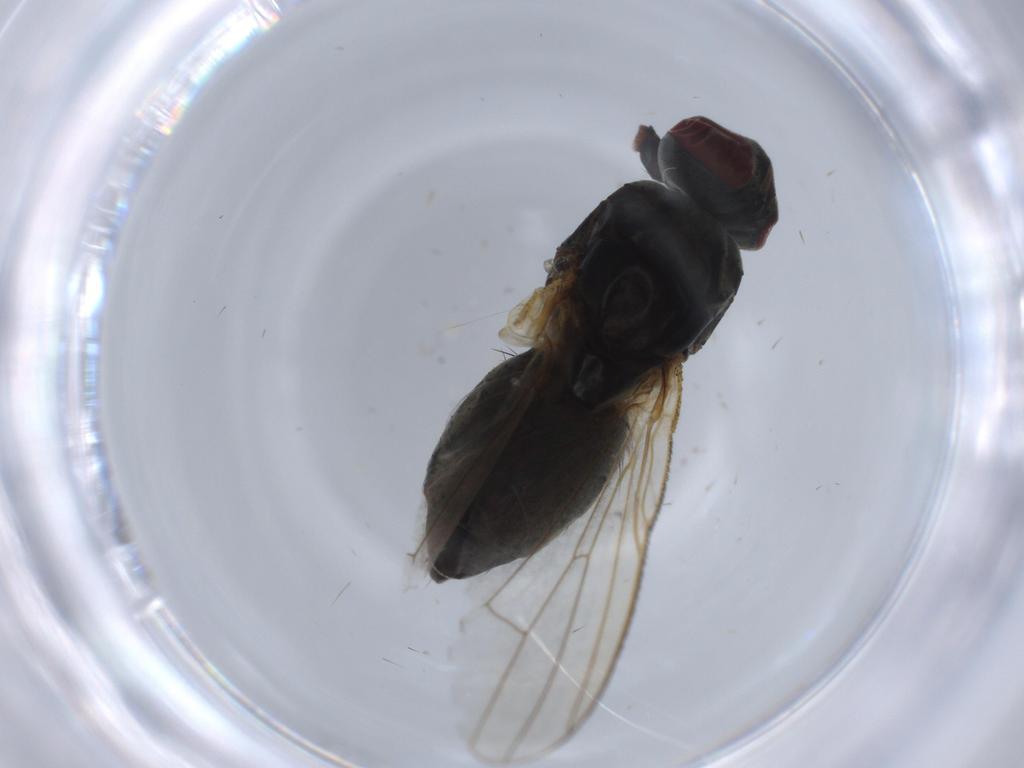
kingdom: Animalia
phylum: Arthropoda
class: Insecta
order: Diptera
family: Muscidae
